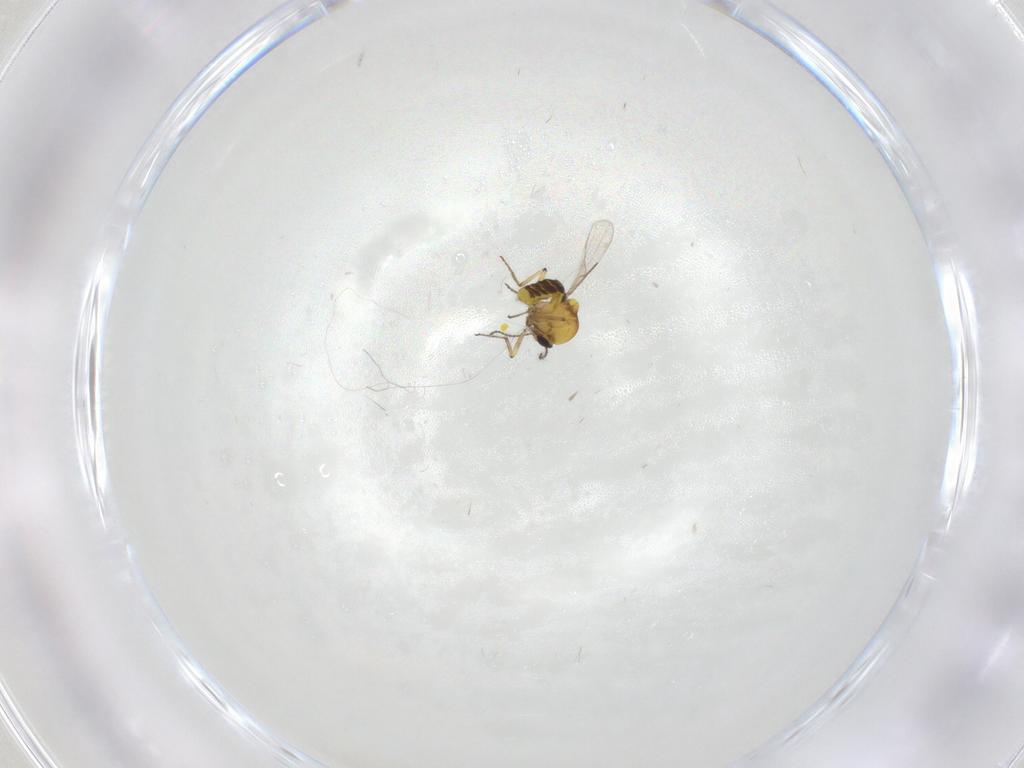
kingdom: Animalia
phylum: Arthropoda
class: Insecta
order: Diptera
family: Ceratopogonidae
